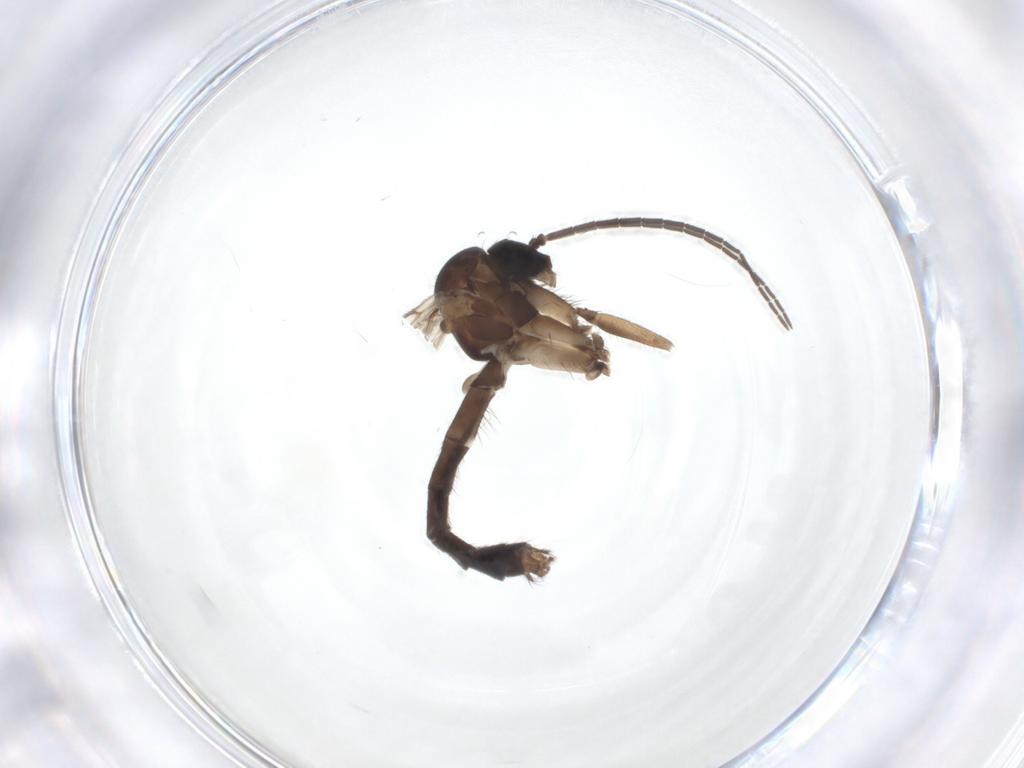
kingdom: Animalia
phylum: Arthropoda
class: Insecta
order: Diptera
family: Mycetophilidae
